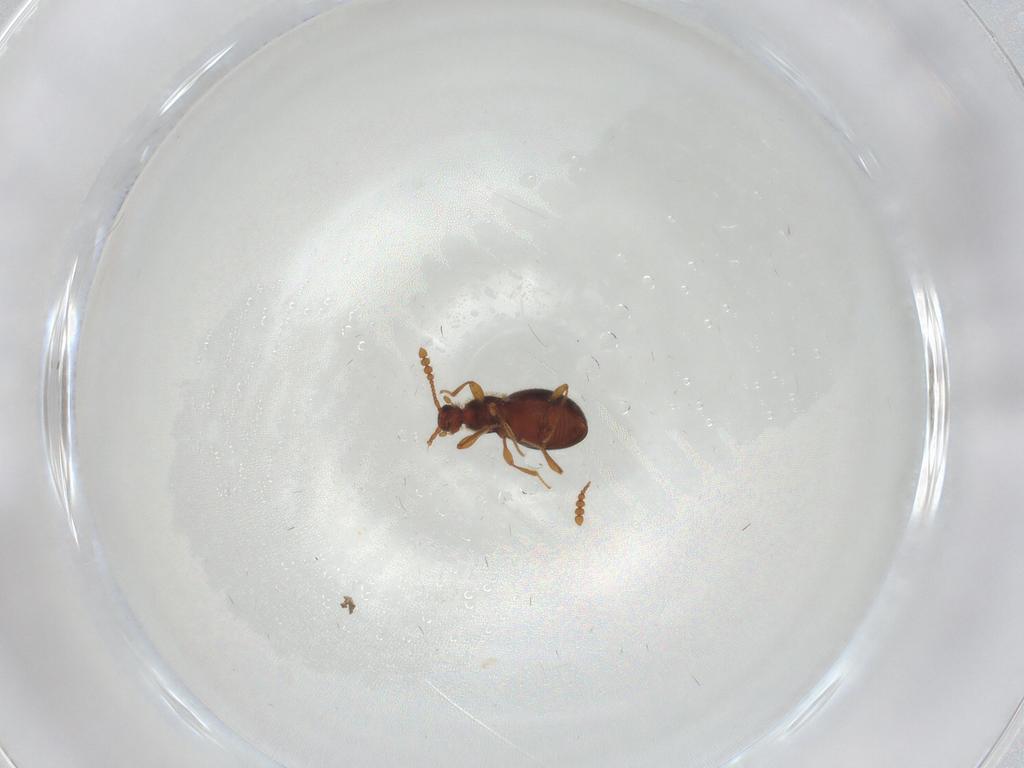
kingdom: Animalia
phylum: Arthropoda
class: Insecta
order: Coleoptera
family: Leiodidae
